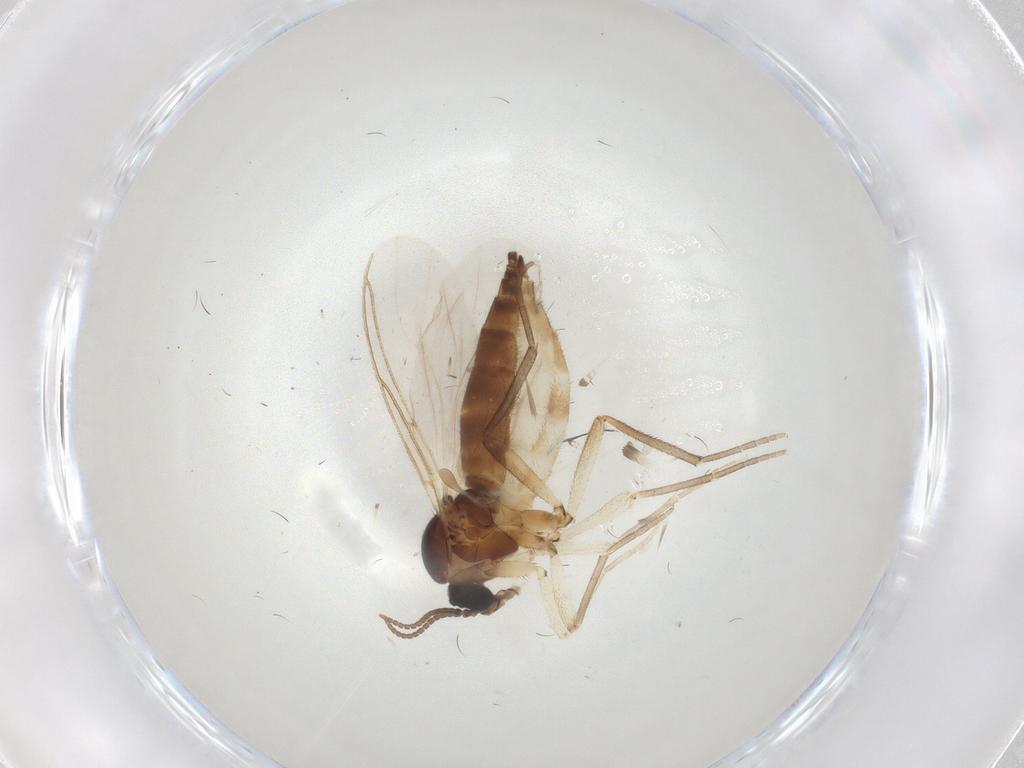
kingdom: Animalia
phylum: Arthropoda
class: Insecta
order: Diptera
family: Sciaridae
